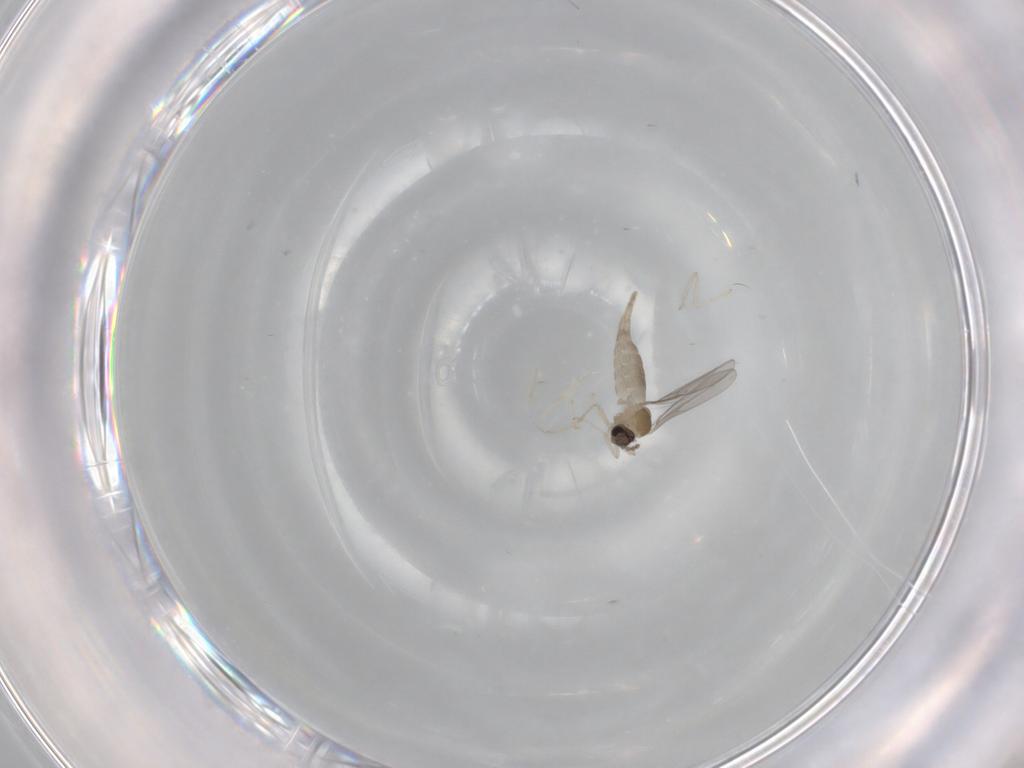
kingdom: Animalia
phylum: Arthropoda
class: Insecta
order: Diptera
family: Cecidomyiidae
